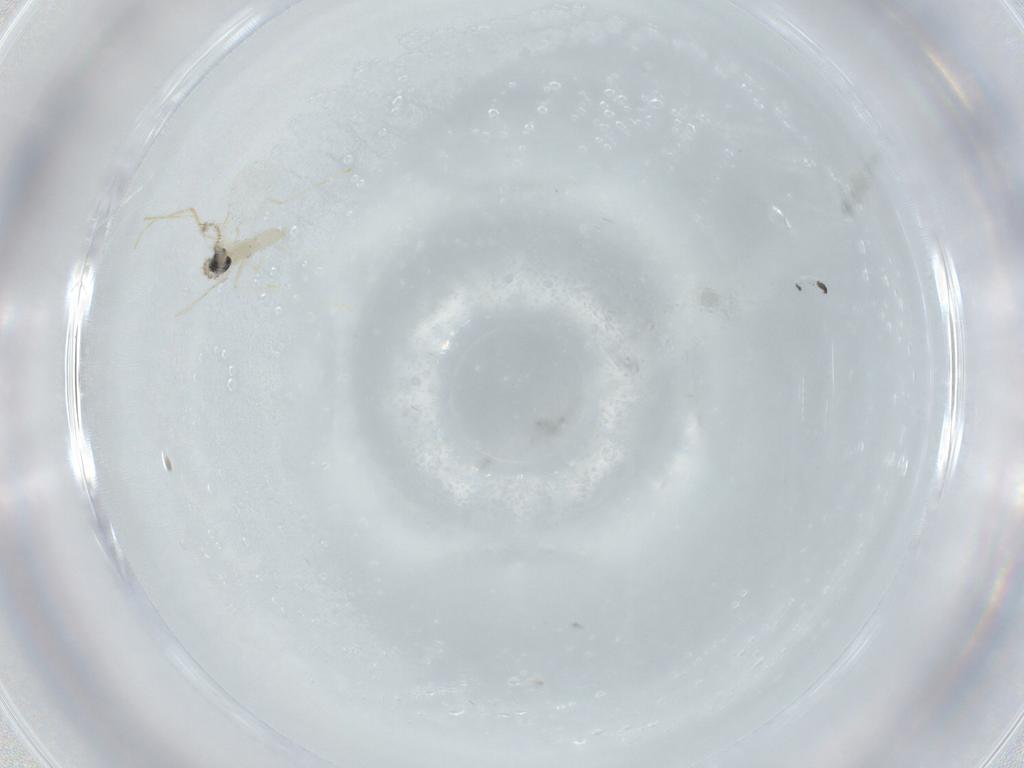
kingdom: Animalia
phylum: Arthropoda
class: Insecta
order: Diptera
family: Cecidomyiidae
